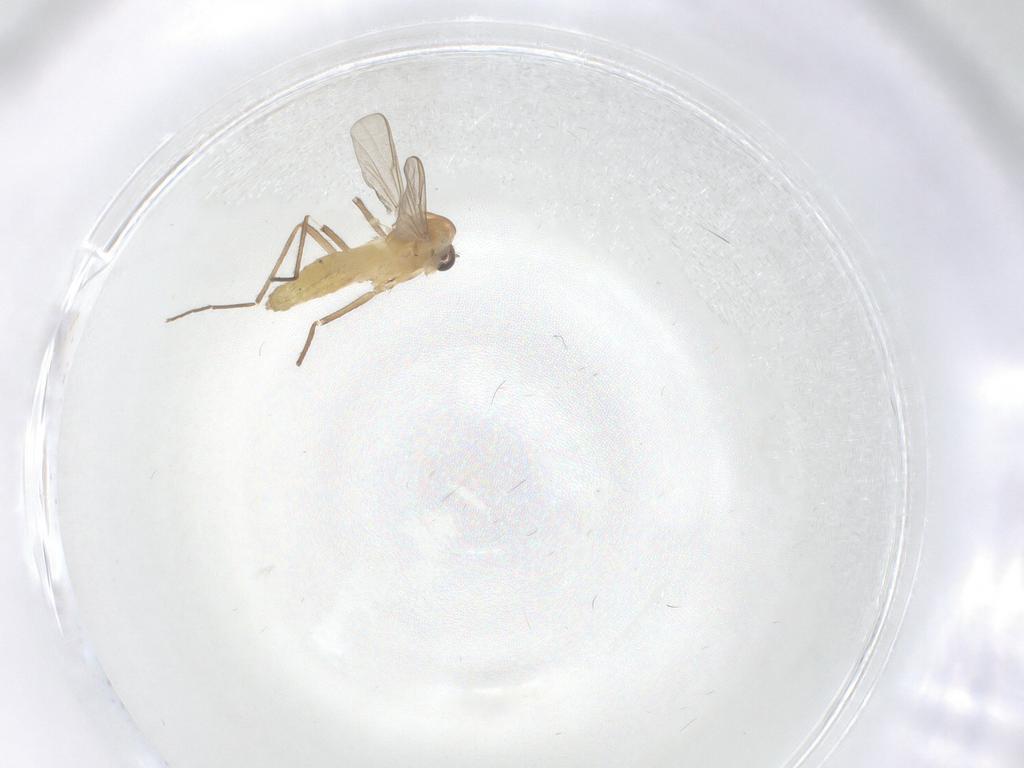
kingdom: Animalia
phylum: Arthropoda
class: Insecta
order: Diptera
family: Chironomidae
